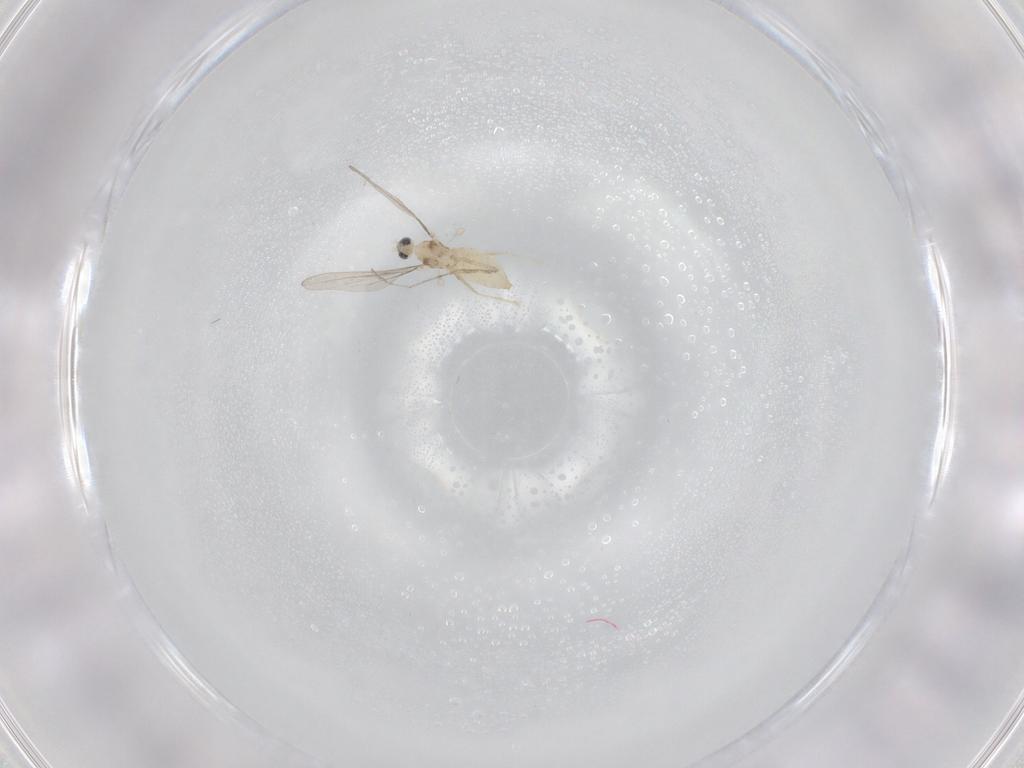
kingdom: Animalia
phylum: Arthropoda
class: Insecta
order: Diptera
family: Cecidomyiidae
